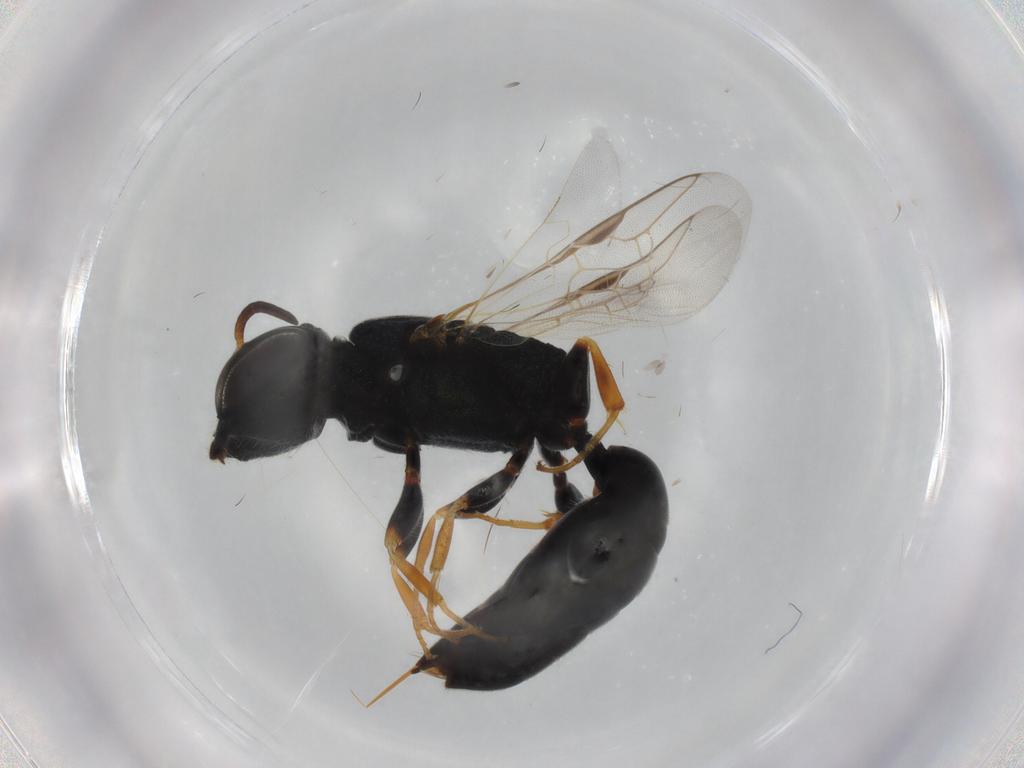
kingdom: Animalia
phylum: Arthropoda
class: Insecta
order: Hymenoptera
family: Crabronidae
